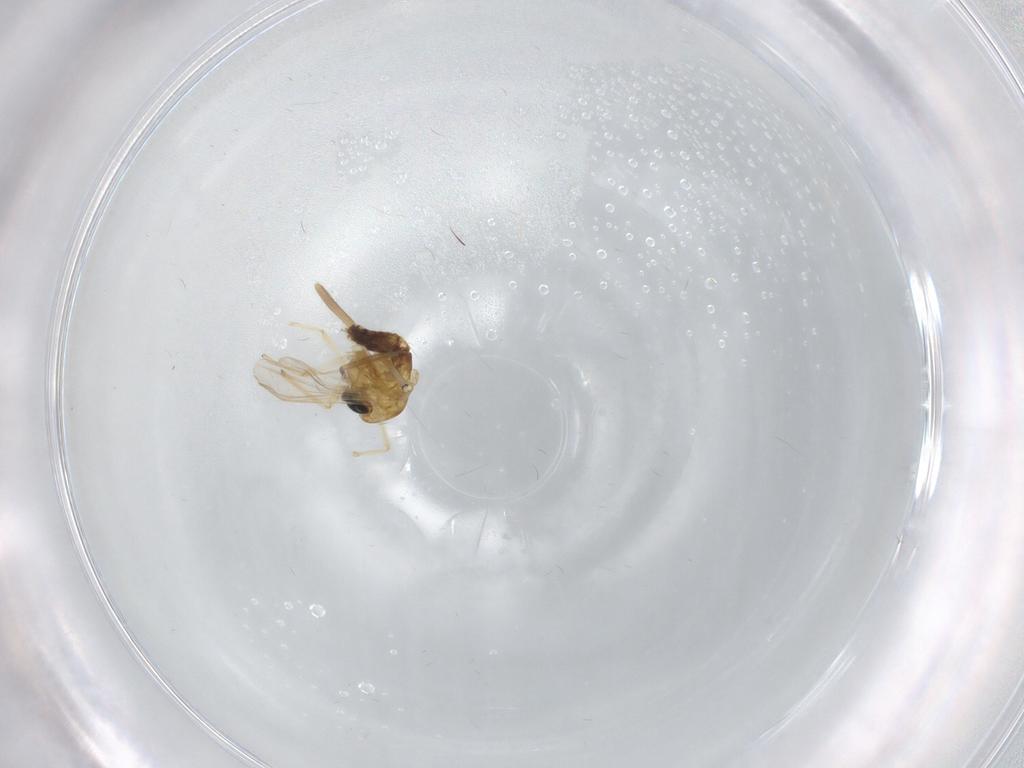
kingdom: Animalia
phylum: Arthropoda
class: Insecta
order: Diptera
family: Chironomidae
